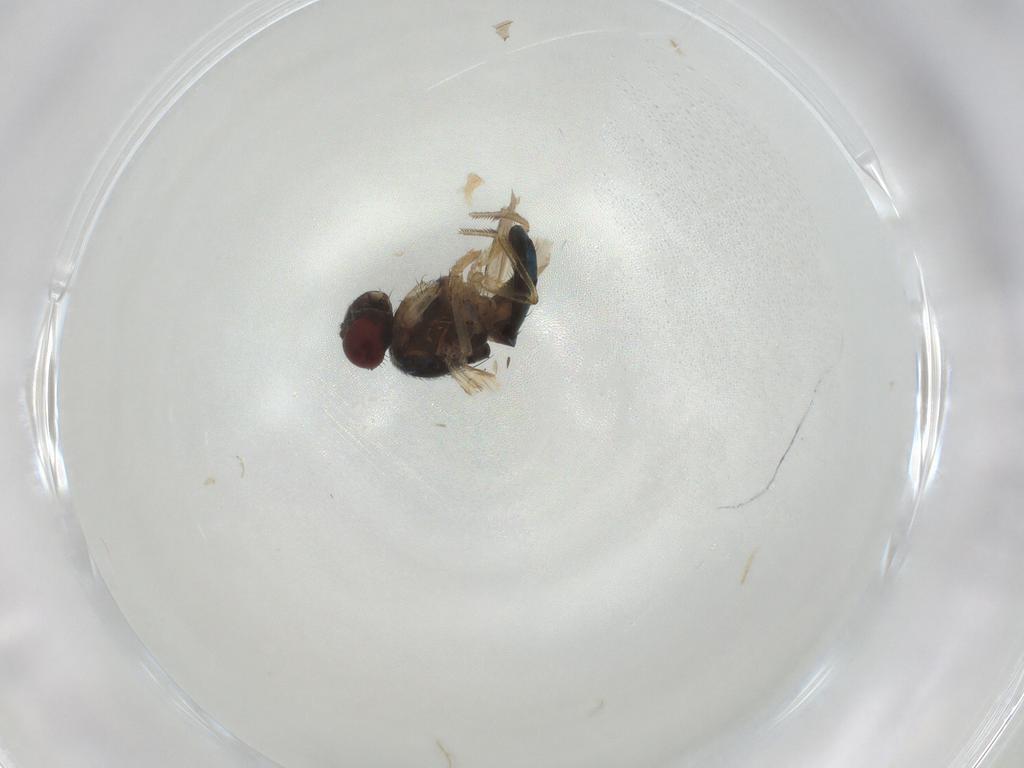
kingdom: Animalia
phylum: Arthropoda
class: Insecta
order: Diptera
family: Camillidae
